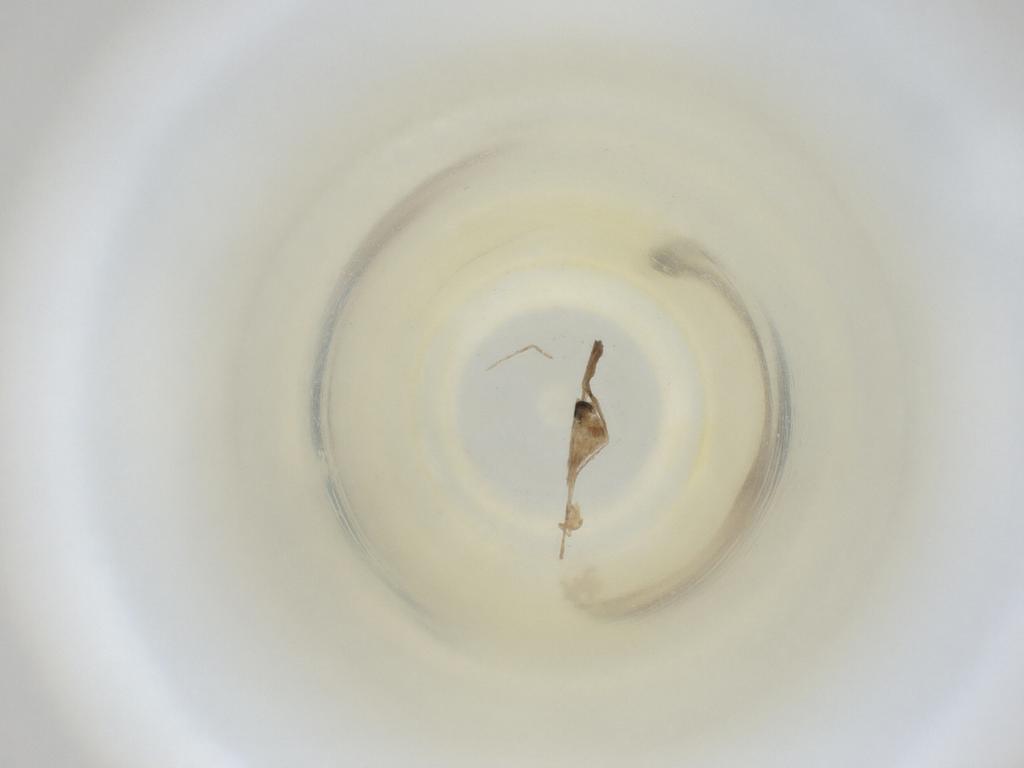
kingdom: Animalia
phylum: Arthropoda
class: Insecta
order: Diptera
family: Cecidomyiidae
